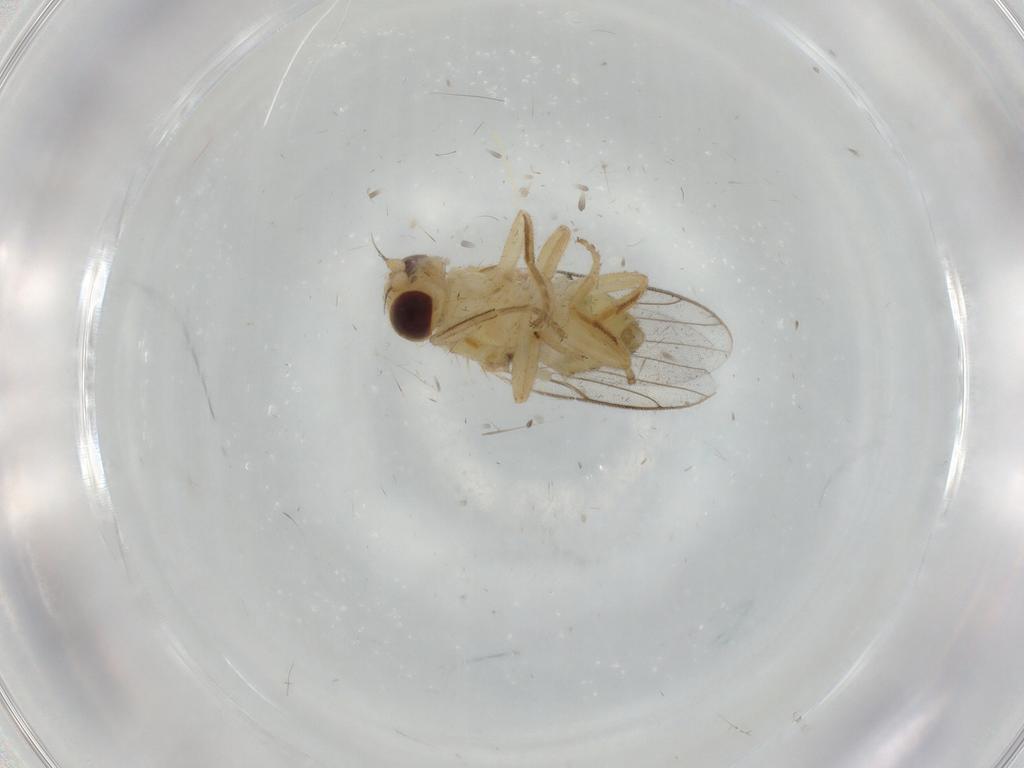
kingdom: Animalia
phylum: Arthropoda
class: Insecta
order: Diptera
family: Chloropidae
